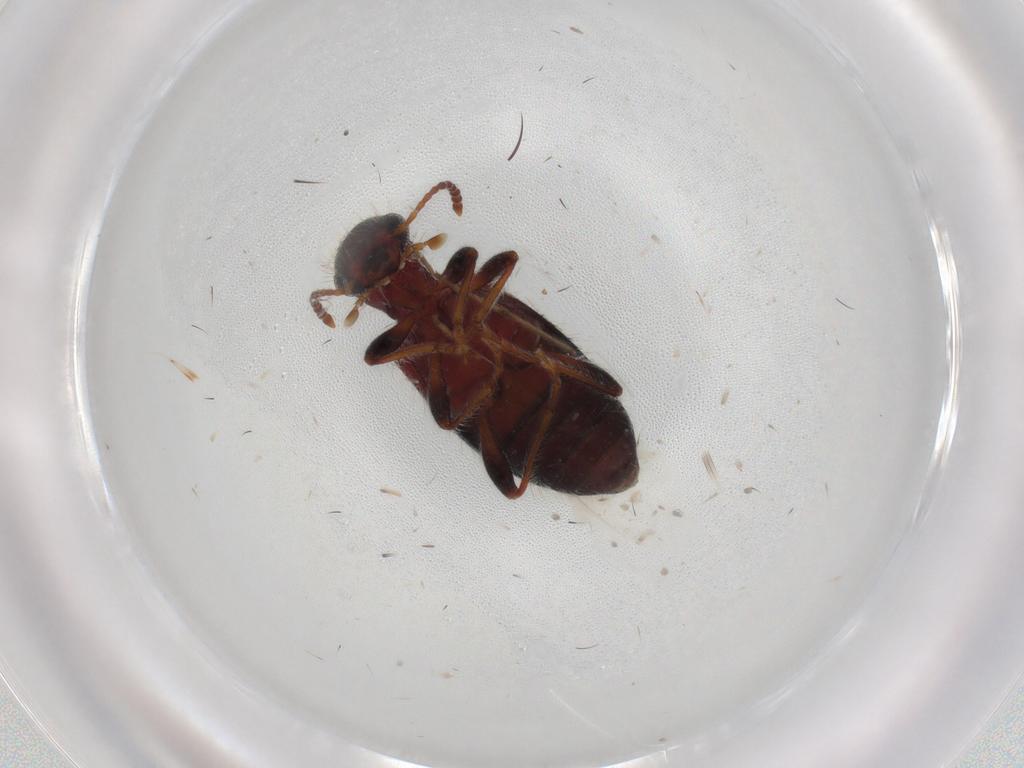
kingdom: Animalia
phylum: Arthropoda
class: Insecta
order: Coleoptera
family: Anthicidae
